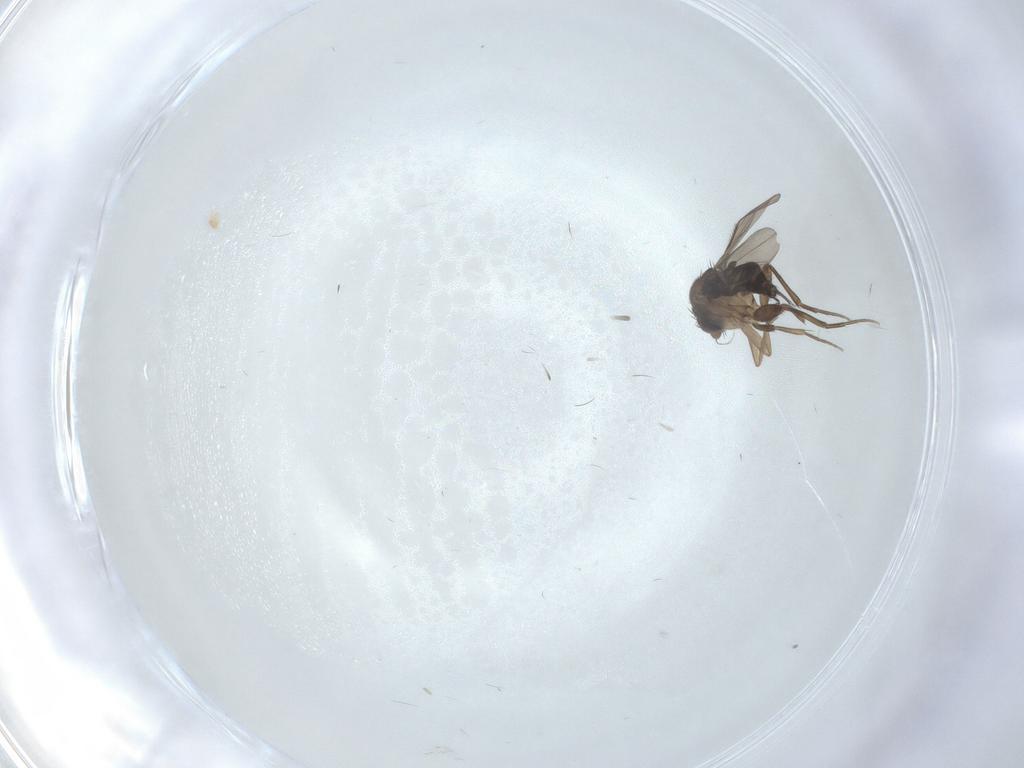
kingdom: Animalia
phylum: Arthropoda
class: Insecta
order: Diptera
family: Phoridae
